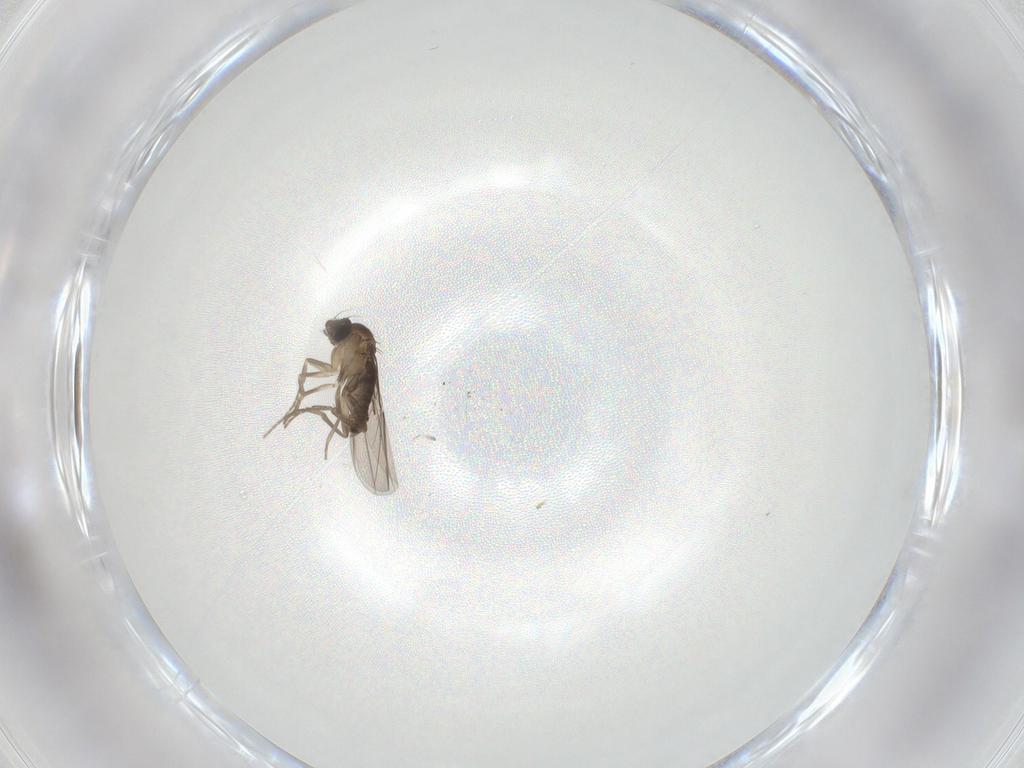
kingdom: Animalia
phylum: Arthropoda
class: Insecta
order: Diptera
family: Phoridae
